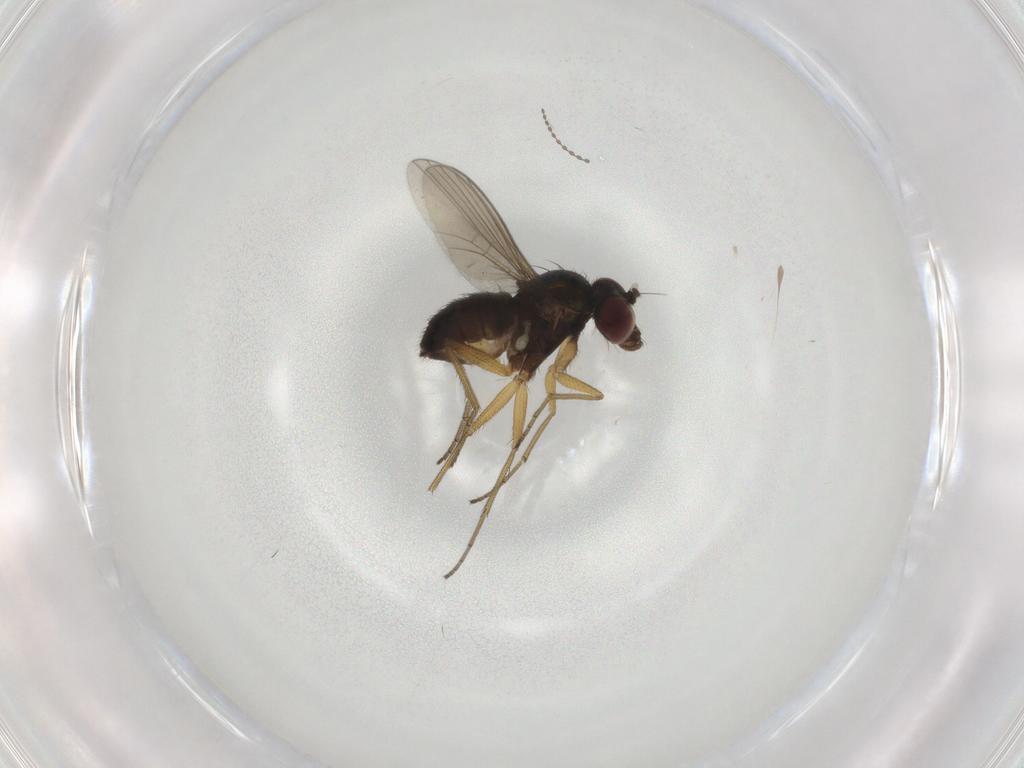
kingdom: Animalia
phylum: Arthropoda
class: Insecta
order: Diptera
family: Dolichopodidae
